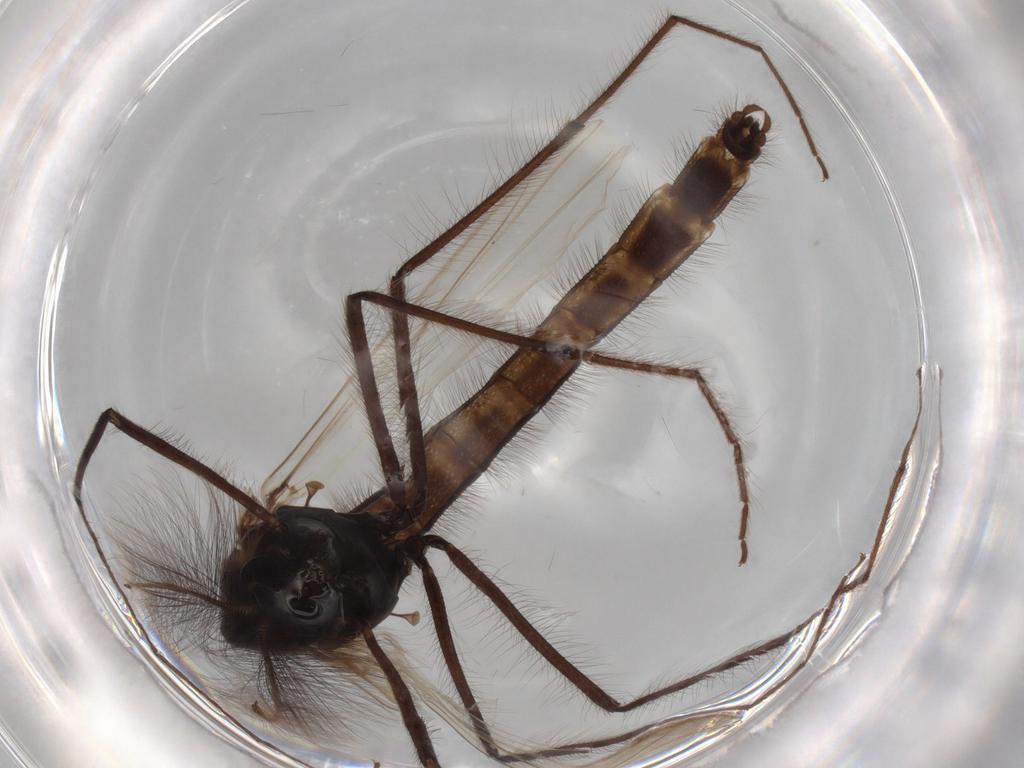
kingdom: Animalia
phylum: Arthropoda
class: Insecta
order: Diptera
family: Chironomidae
